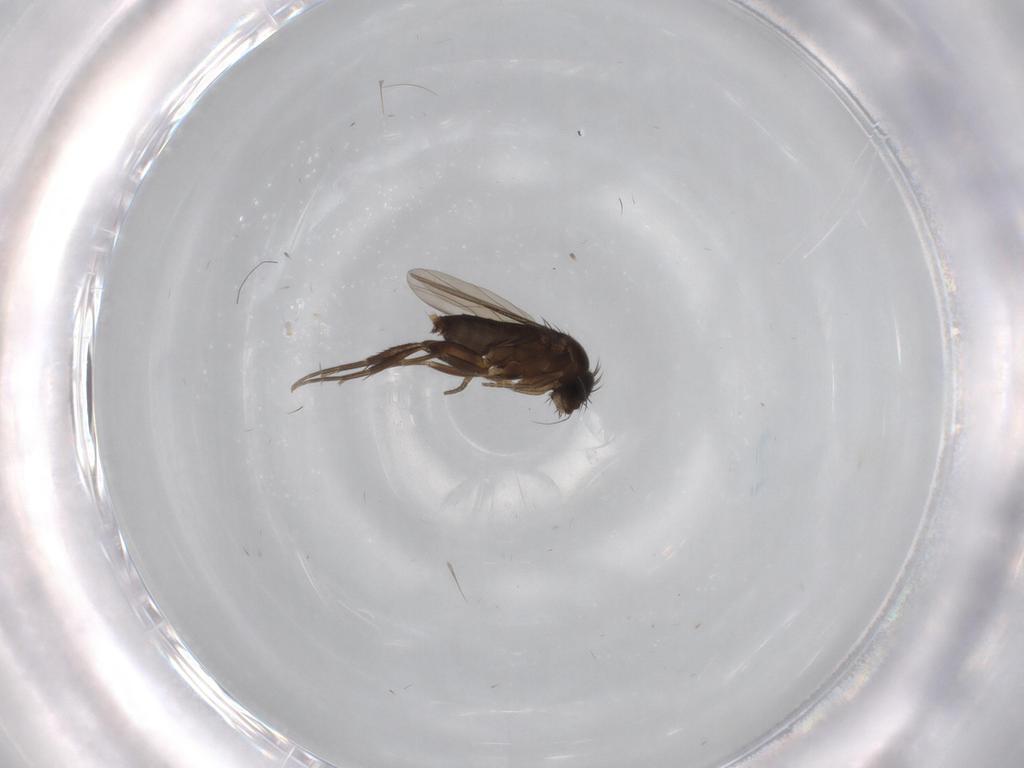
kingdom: Animalia
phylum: Arthropoda
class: Insecta
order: Diptera
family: Phoridae
